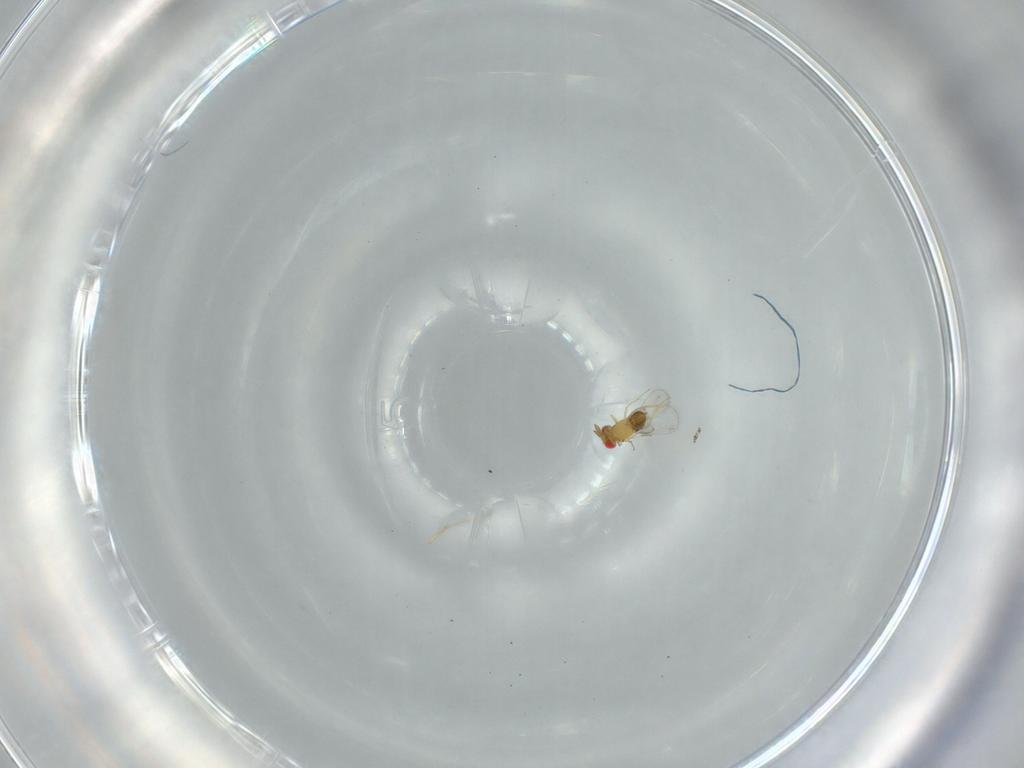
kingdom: Animalia
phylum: Arthropoda
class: Insecta
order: Hymenoptera
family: Trichogrammatidae
